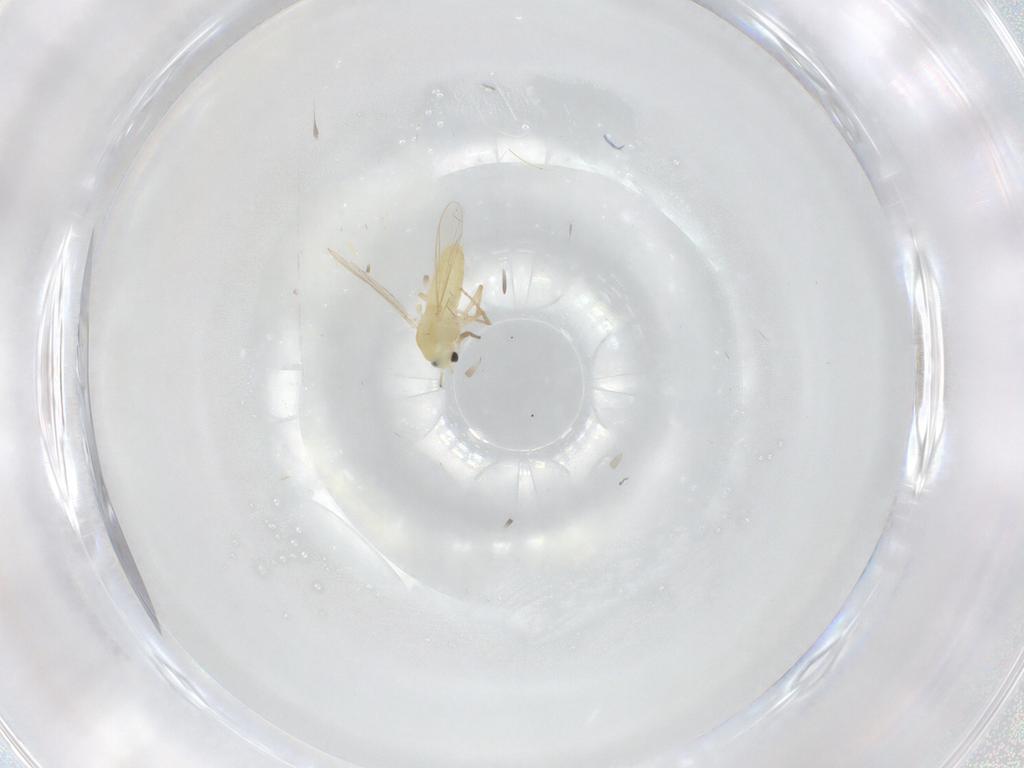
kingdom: Animalia
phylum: Arthropoda
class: Insecta
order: Diptera
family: Chironomidae
